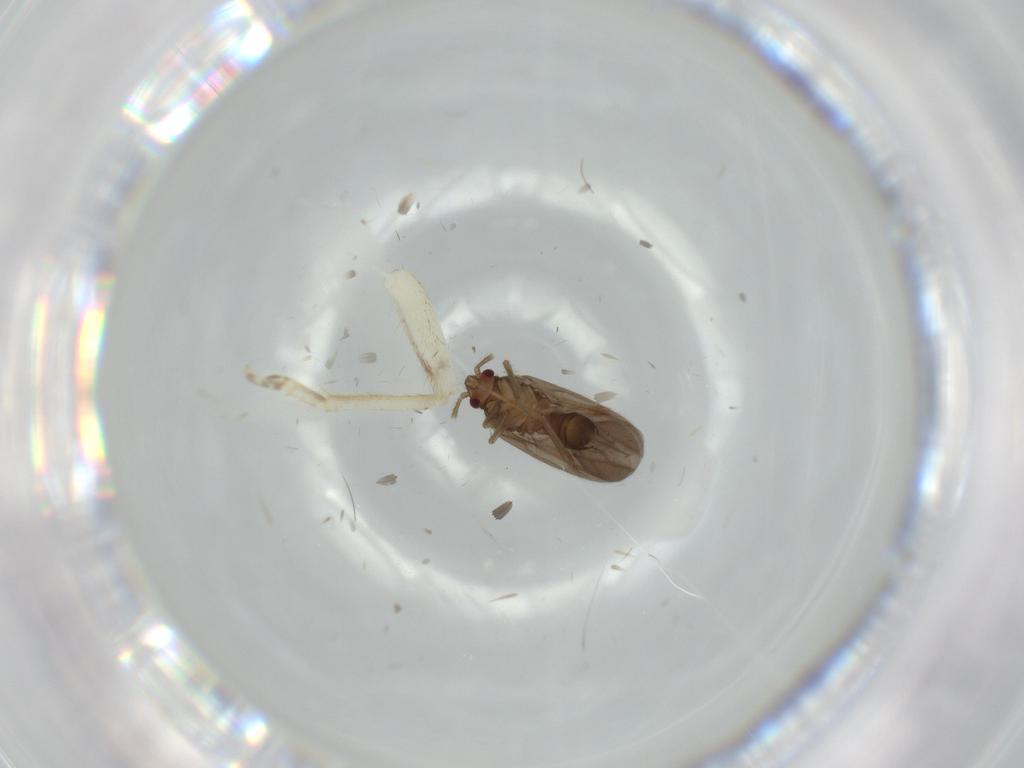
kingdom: Animalia
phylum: Arthropoda
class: Insecta
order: Hemiptera
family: Ceratocombidae
